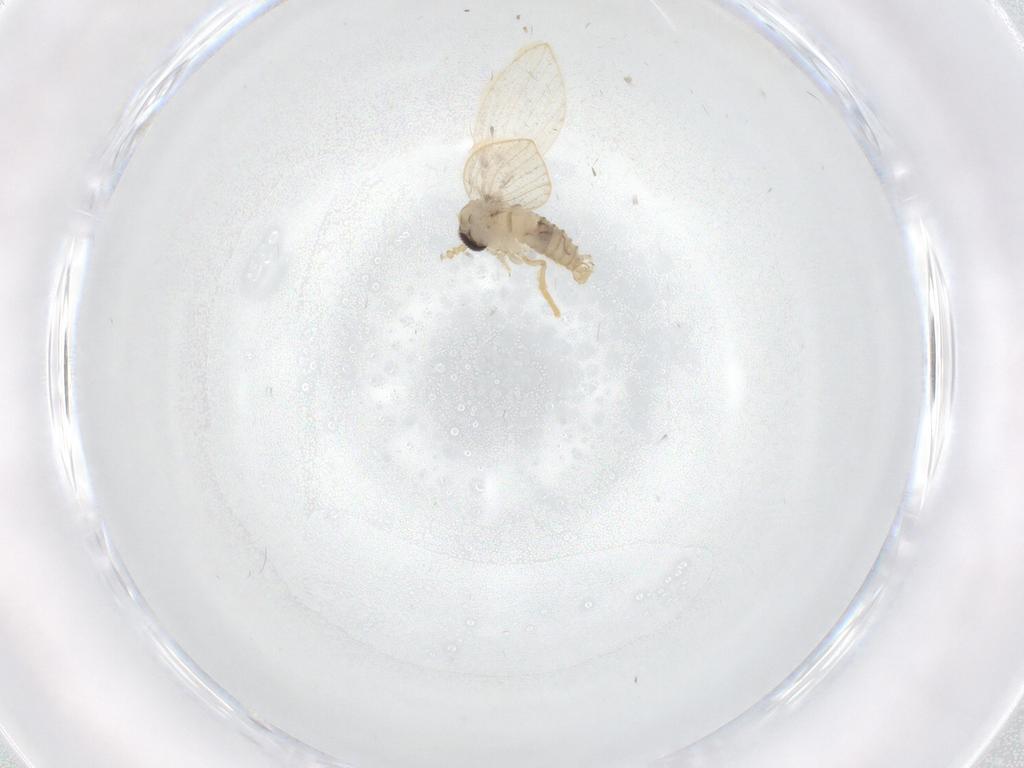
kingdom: Animalia
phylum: Arthropoda
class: Insecta
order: Diptera
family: Psychodidae
